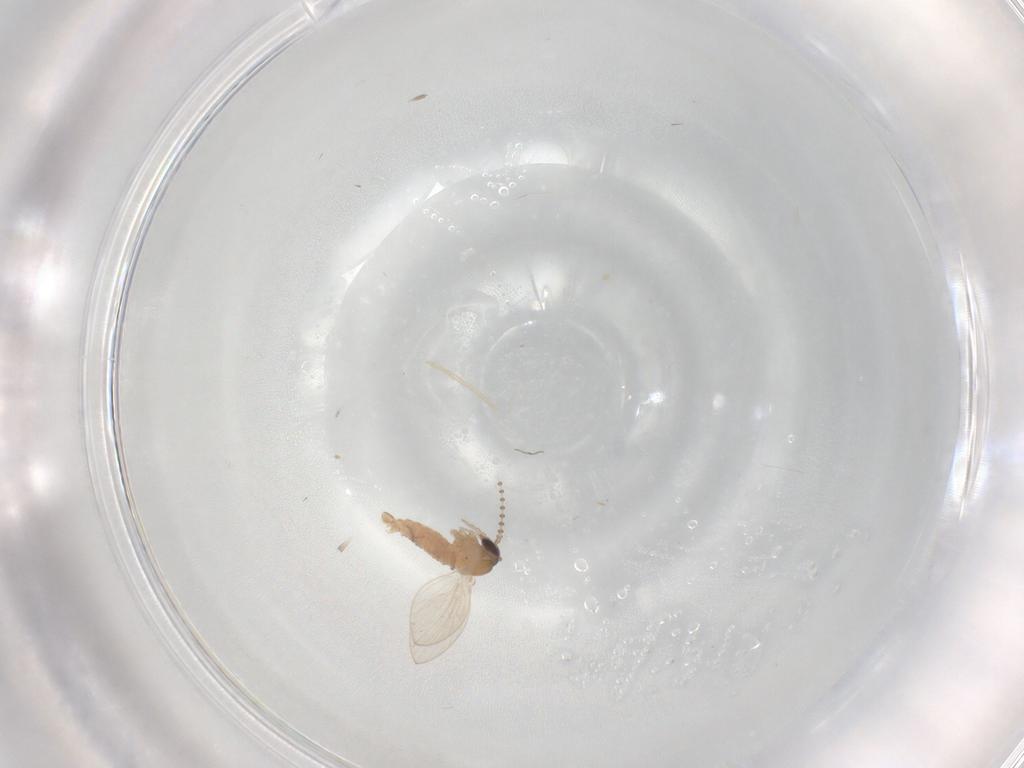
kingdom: Animalia
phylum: Arthropoda
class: Insecta
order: Diptera
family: Psychodidae
